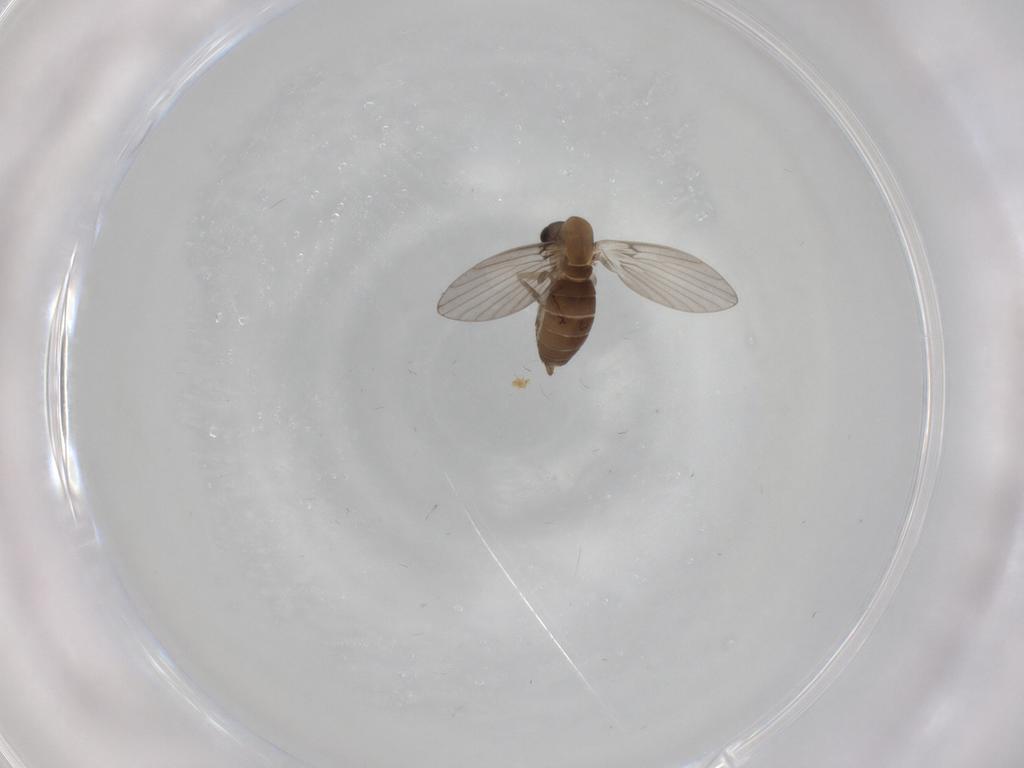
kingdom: Animalia
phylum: Arthropoda
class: Insecta
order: Diptera
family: Psychodidae
